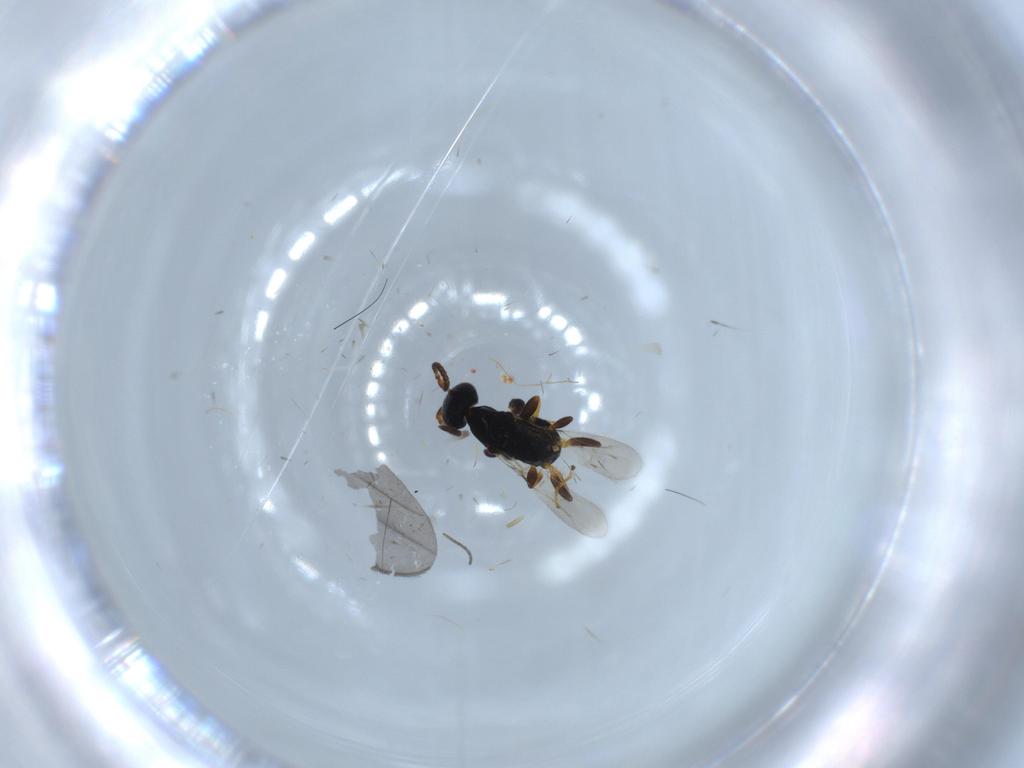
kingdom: Animalia
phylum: Arthropoda
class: Insecta
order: Hymenoptera
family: Bethylidae
